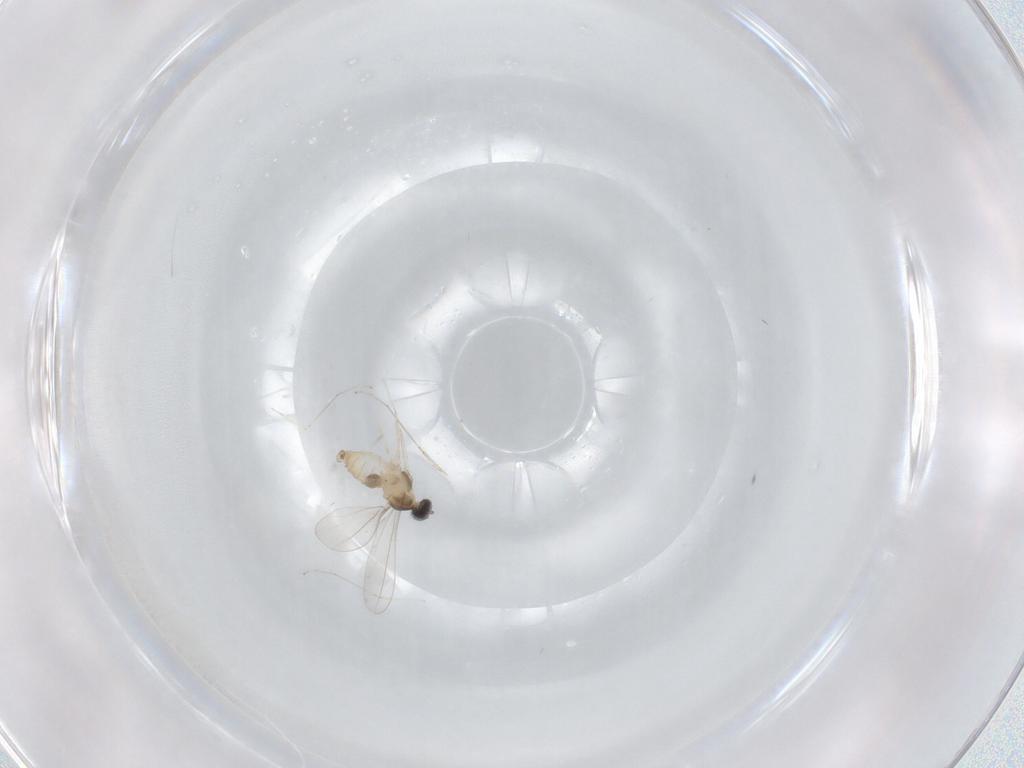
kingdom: Animalia
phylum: Arthropoda
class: Insecta
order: Diptera
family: Cecidomyiidae
